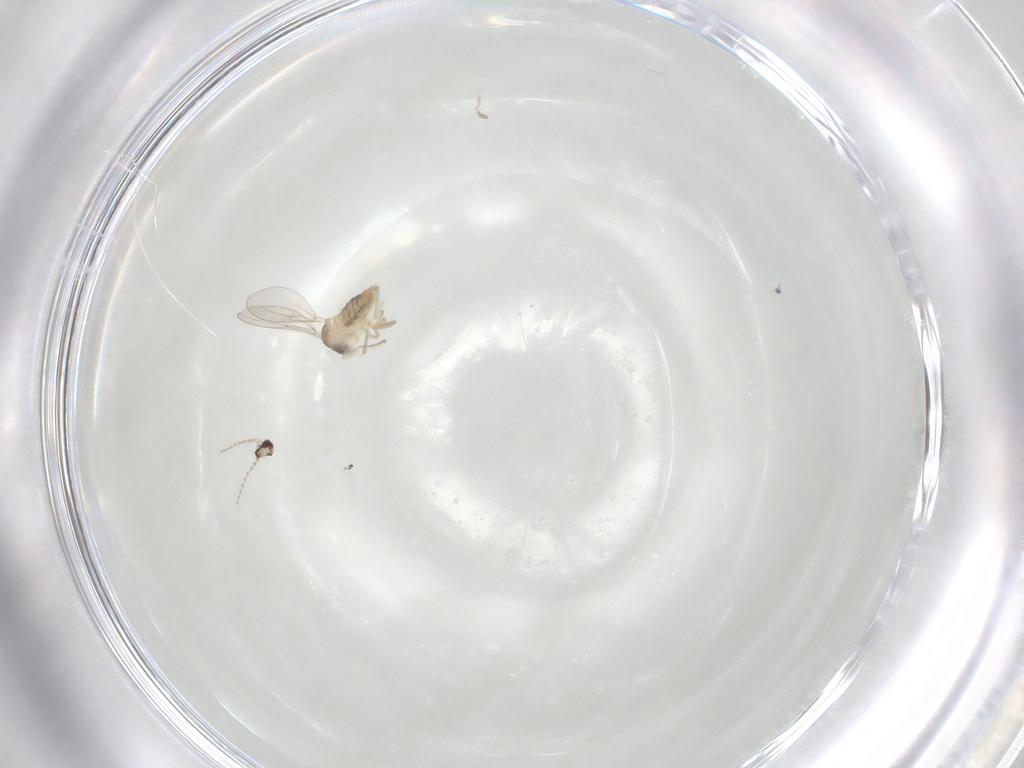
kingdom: Animalia
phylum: Arthropoda
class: Insecta
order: Diptera
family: Cecidomyiidae
